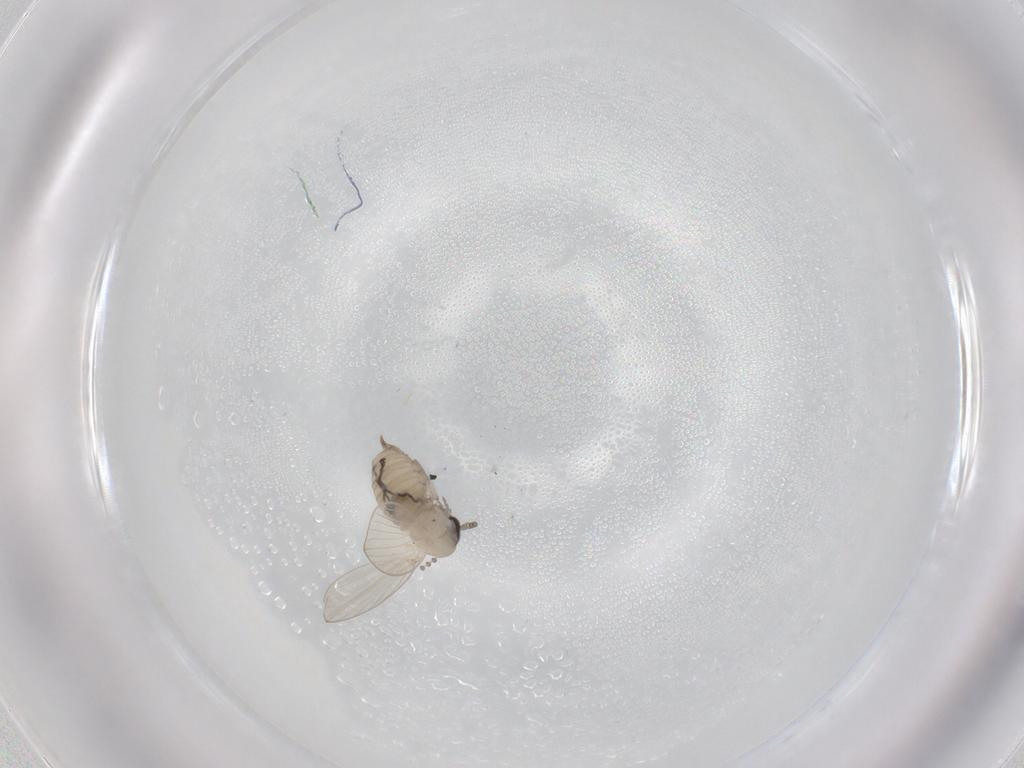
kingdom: Animalia
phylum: Arthropoda
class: Insecta
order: Diptera
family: Psychodidae
